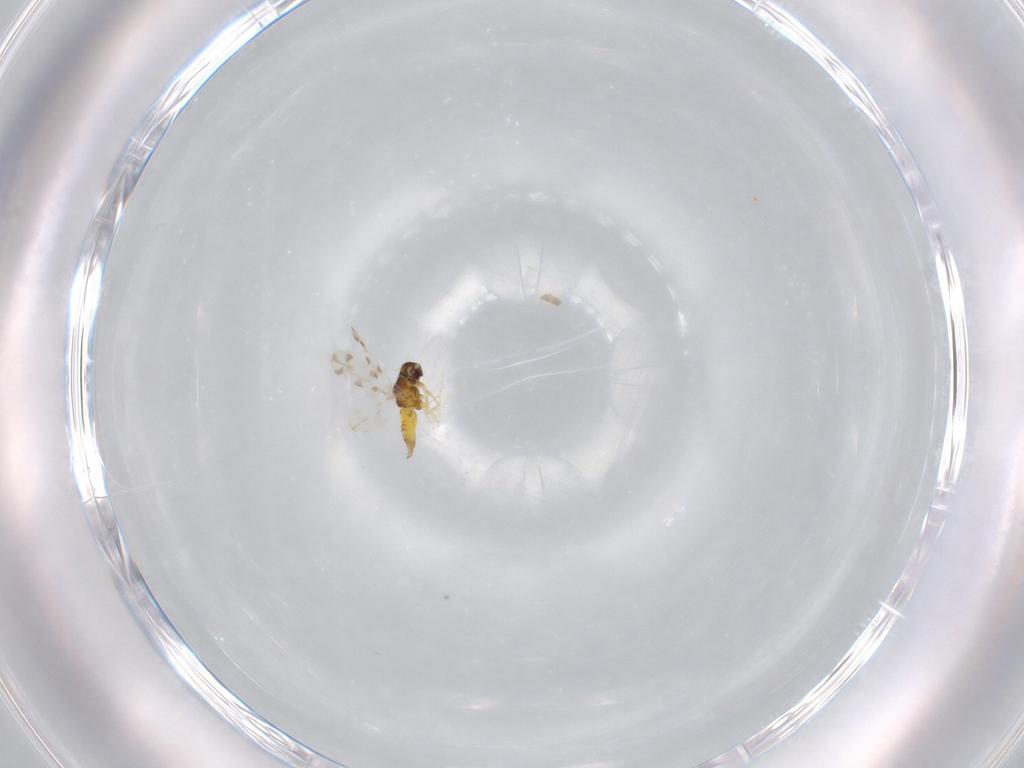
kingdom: Animalia
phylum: Arthropoda
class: Insecta
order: Hemiptera
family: Aleyrodidae
